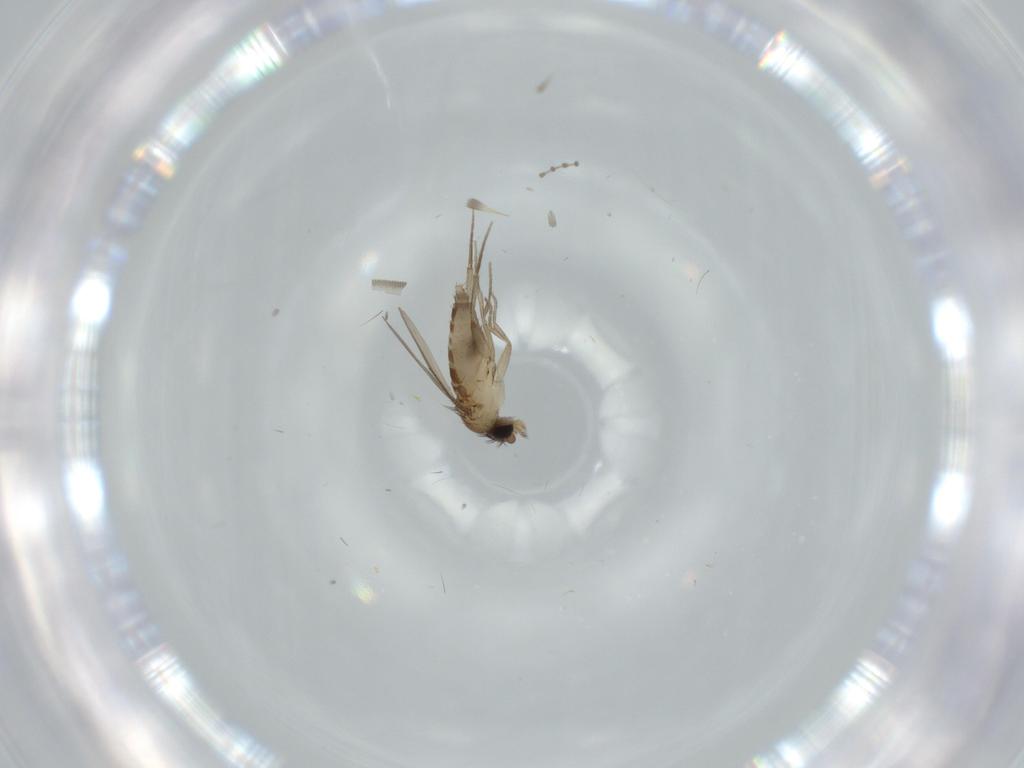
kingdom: Animalia
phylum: Arthropoda
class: Insecta
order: Diptera
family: Phoridae
